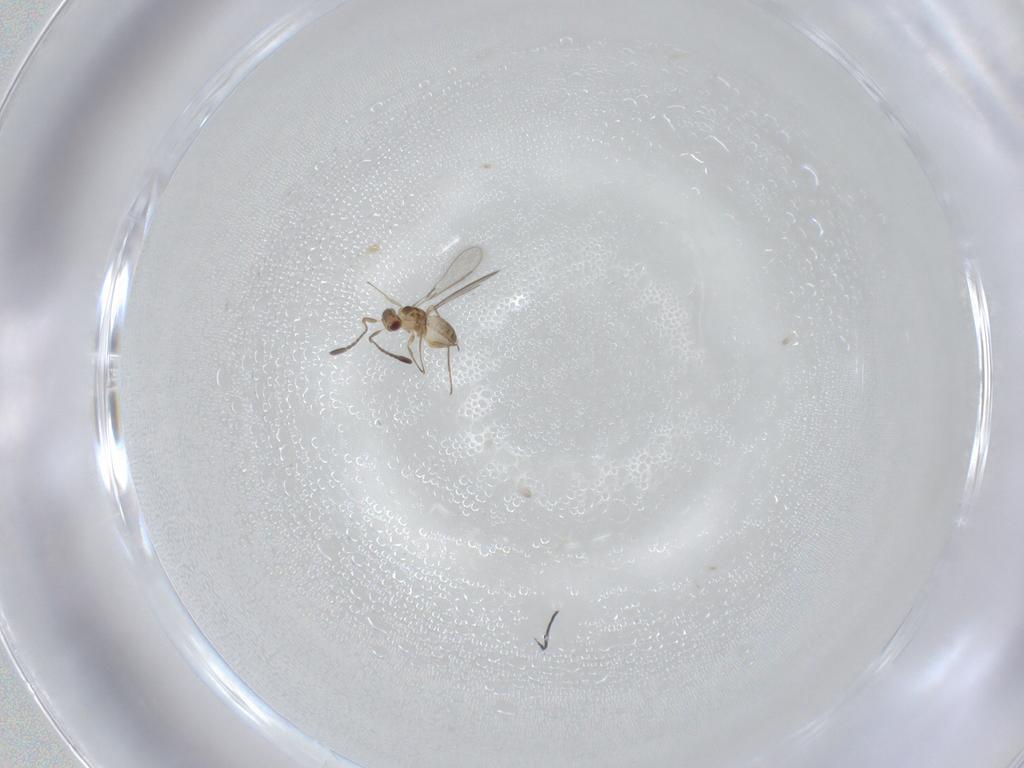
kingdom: Animalia
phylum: Arthropoda
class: Insecta
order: Hymenoptera
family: Mymaridae
